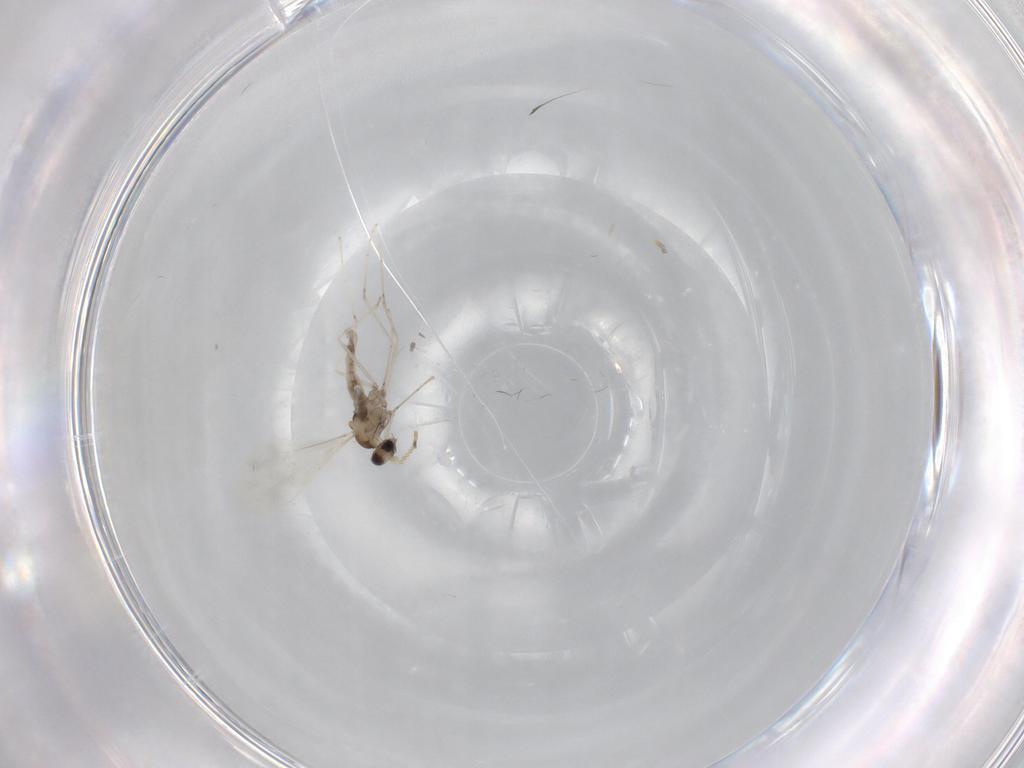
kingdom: Animalia
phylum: Arthropoda
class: Insecta
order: Diptera
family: Cecidomyiidae
